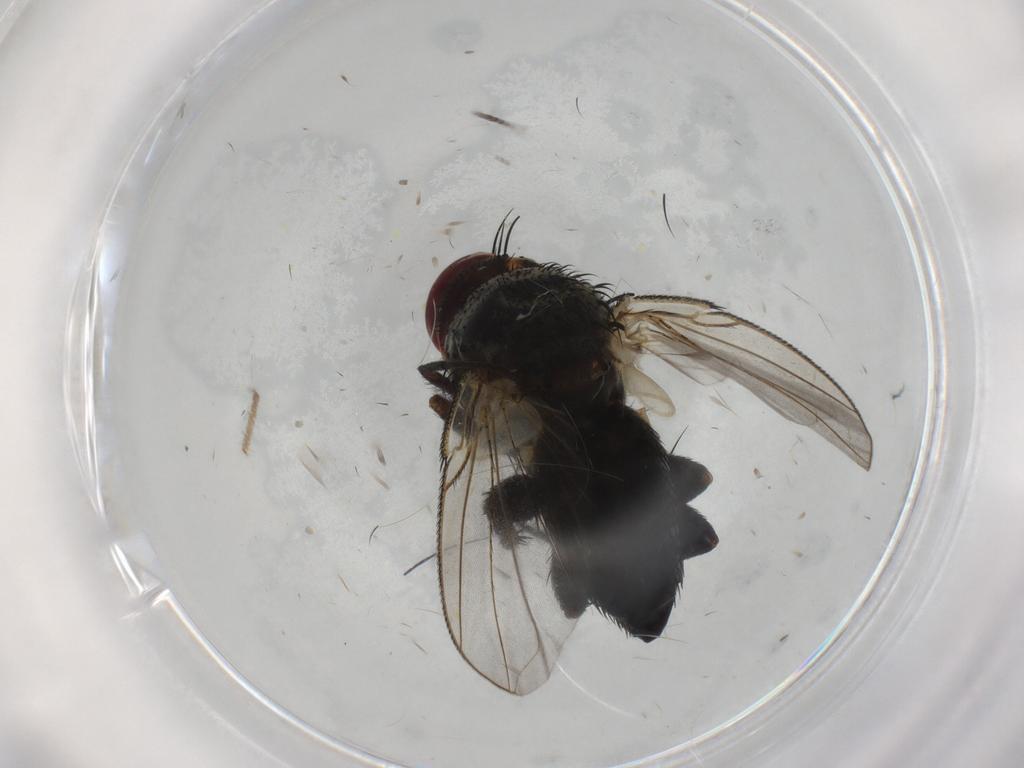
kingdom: Animalia
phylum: Arthropoda
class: Insecta
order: Diptera
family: Tachinidae
